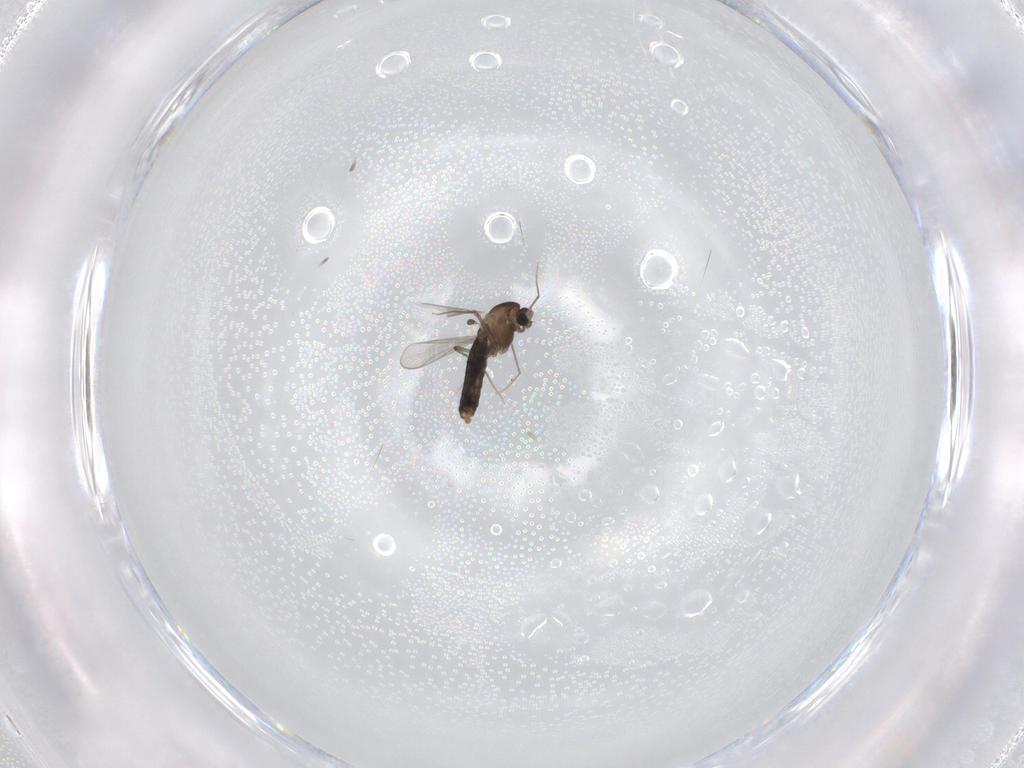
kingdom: Animalia
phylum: Arthropoda
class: Insecta
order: Diptera
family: Chironomidae
